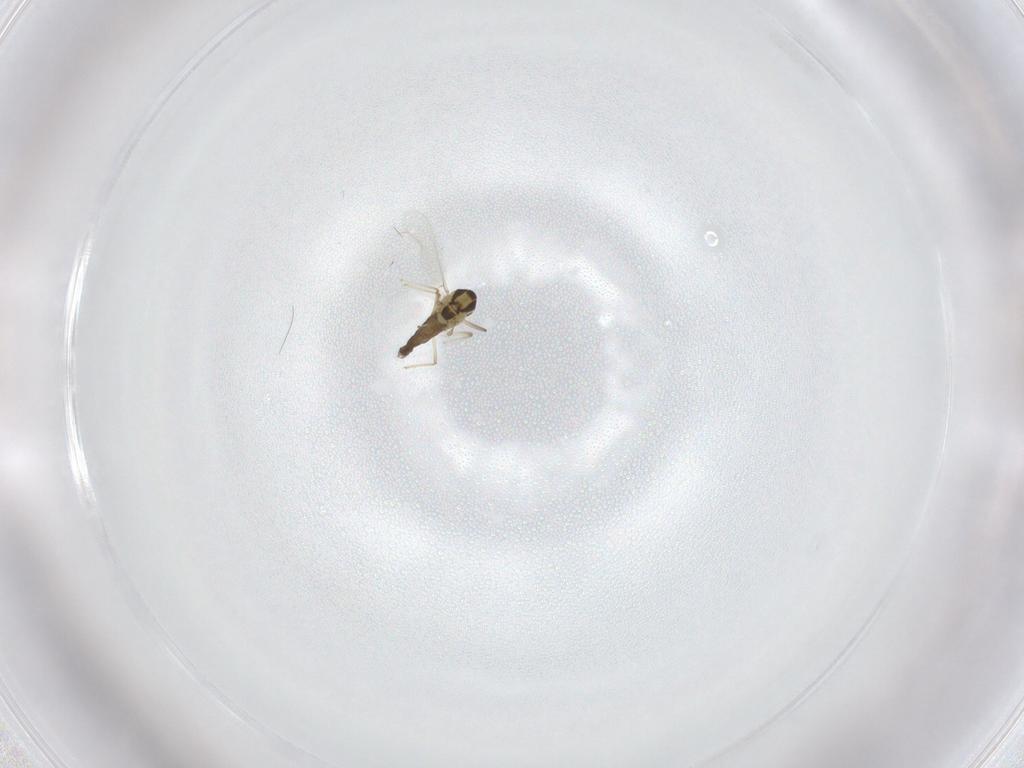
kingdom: Animalia
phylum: Arthropoda
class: Insecta
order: Diptera
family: Chironomidae
